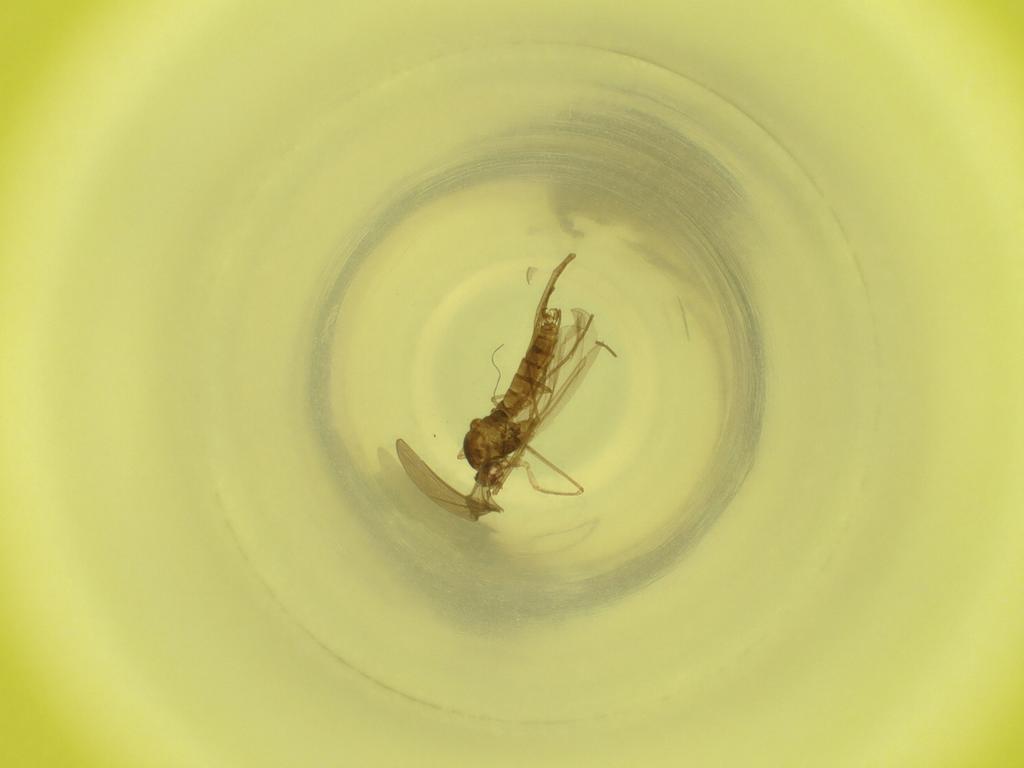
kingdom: Animalia
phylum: Arthropoda
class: Insecta
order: Diptera
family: Cecidomyiidae
